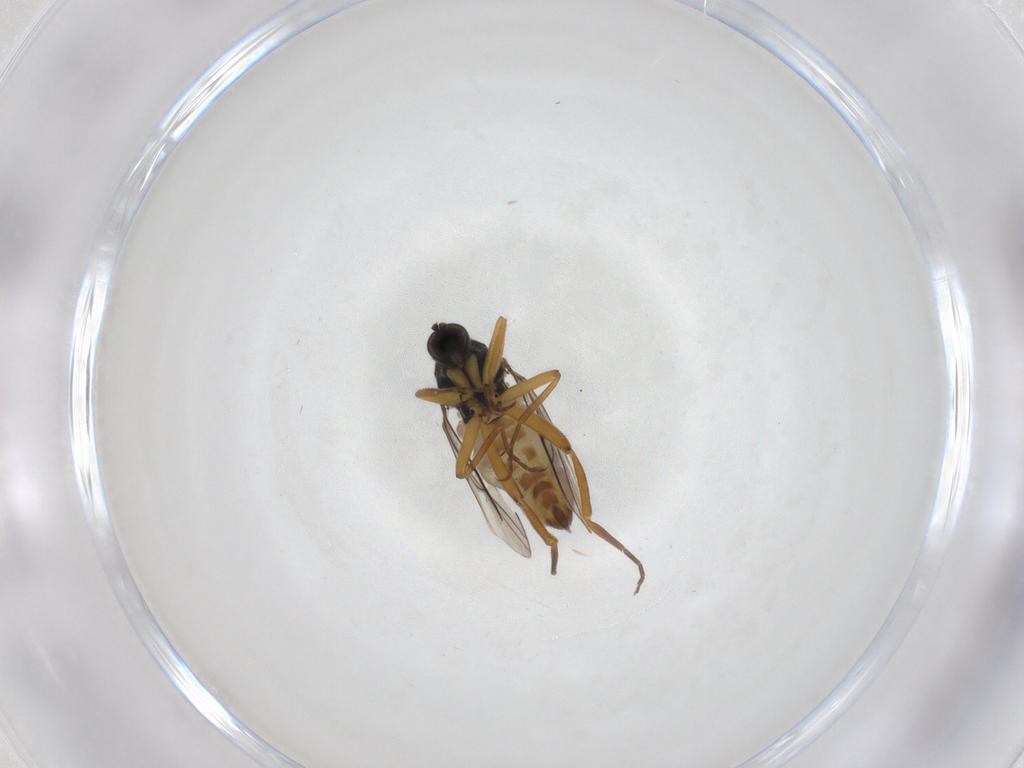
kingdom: Animalia
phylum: Arthropoda
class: Insecta
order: Diptera
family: Hybotidae
